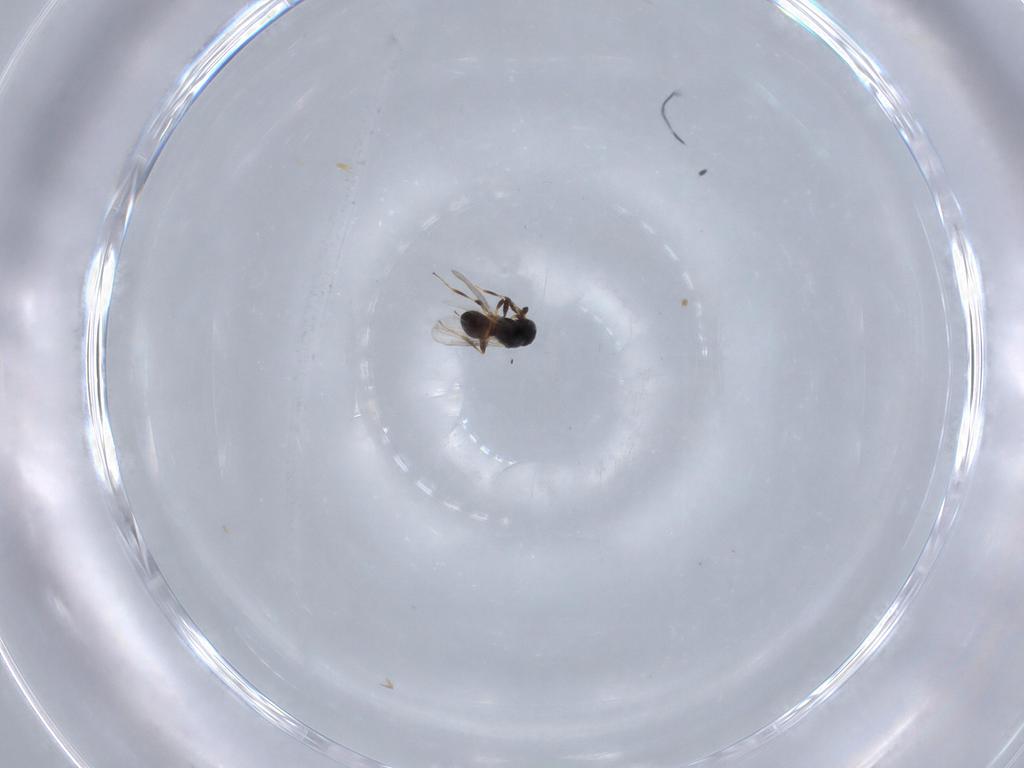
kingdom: Animalia
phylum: Arthropoda
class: Insecta
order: Hymenoptera
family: Platygastridae
